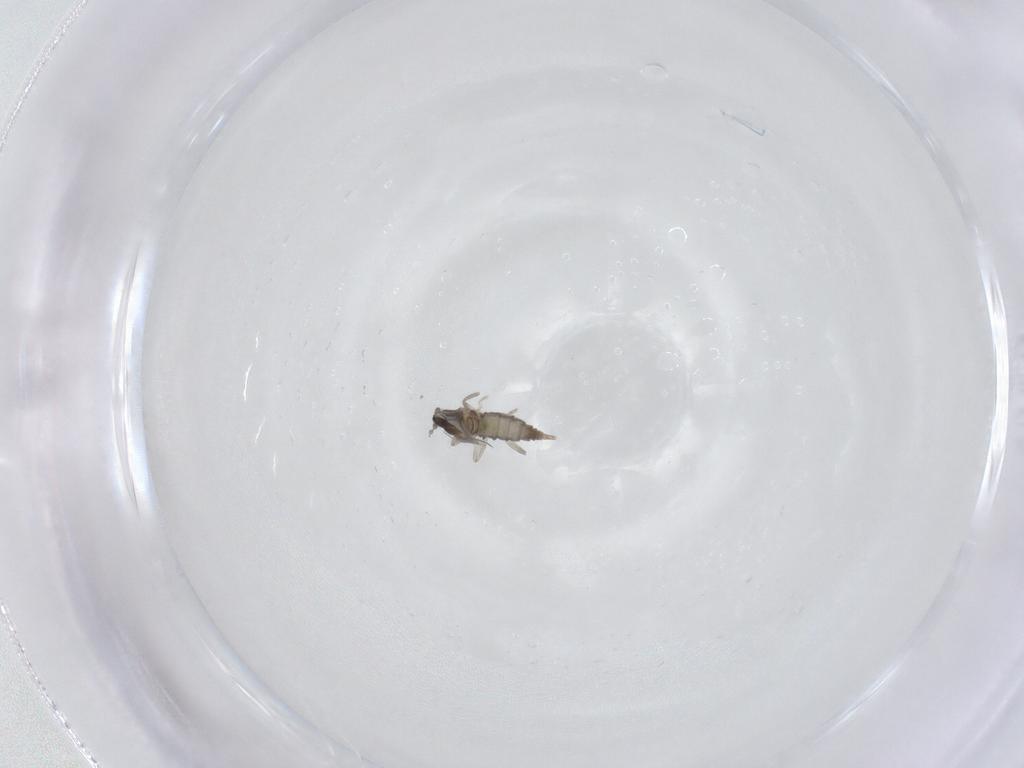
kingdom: Animalia
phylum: Arthropoda
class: Insecta
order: Diptera
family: Cecidomyiidae
